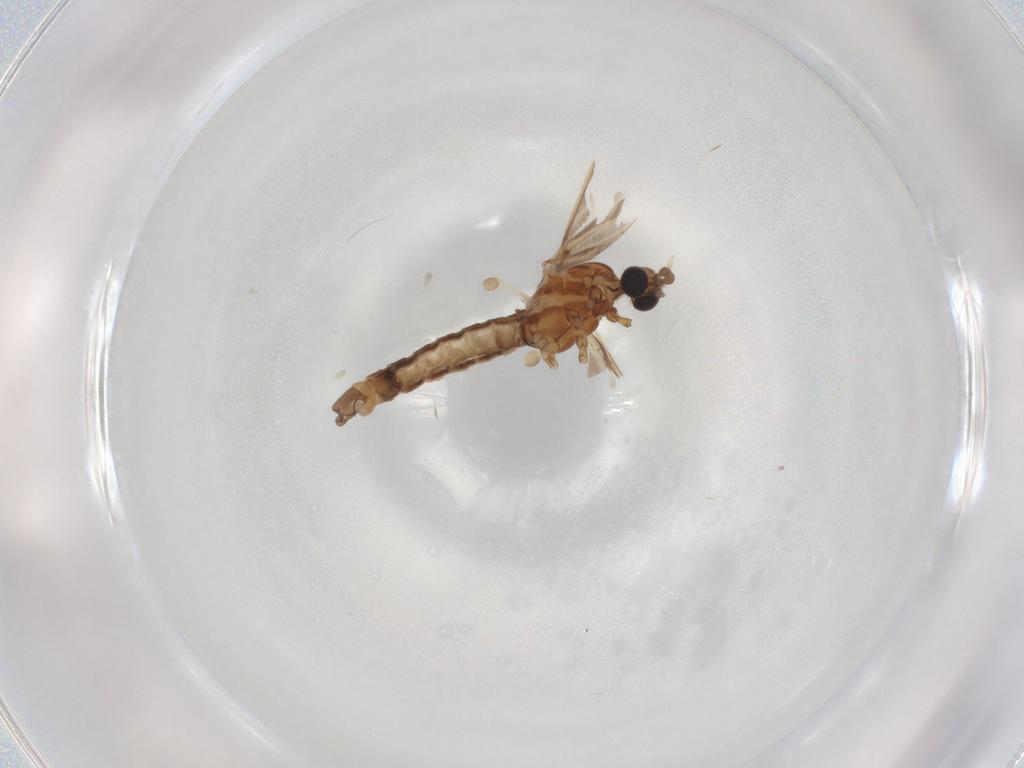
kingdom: Animalia
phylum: Arthropoda
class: Insecta
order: Diptera
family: Limoniidae
